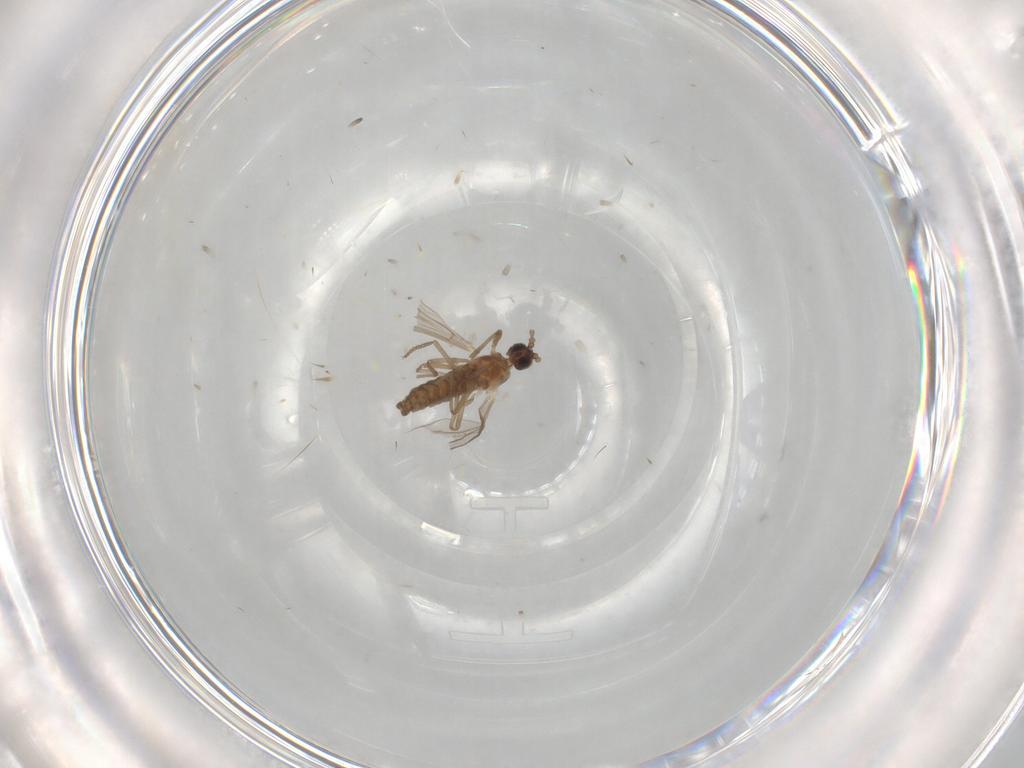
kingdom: Animalia
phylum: Arthropoda
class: Insecta
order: Diptera
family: Cecidomyiidae
